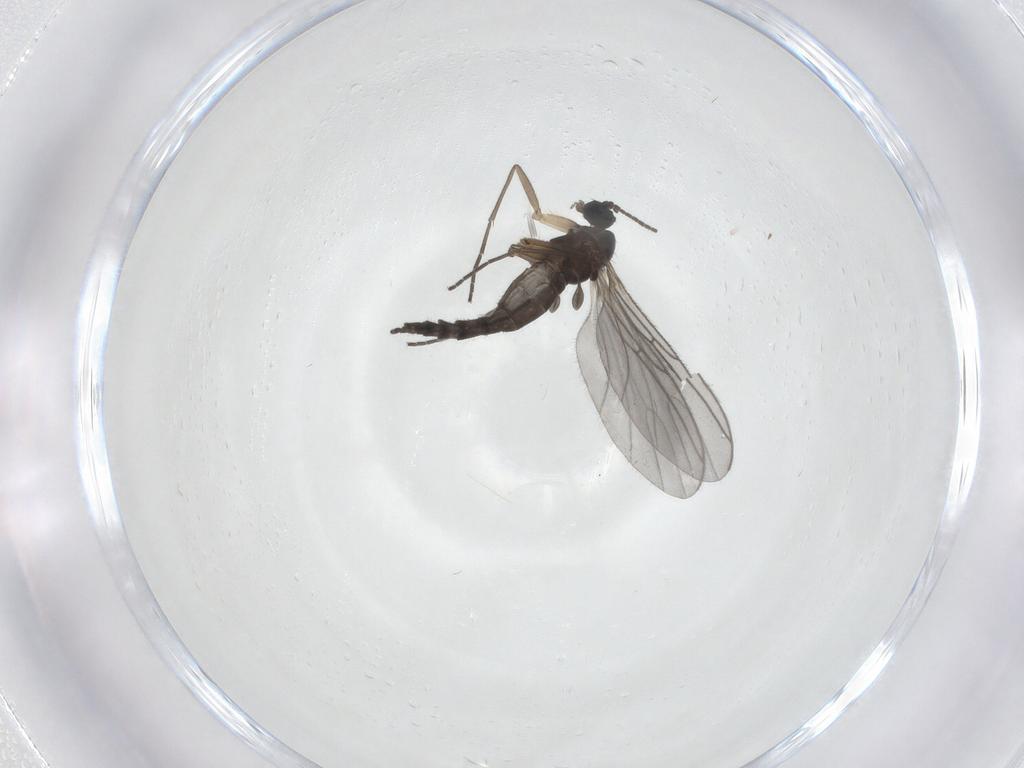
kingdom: Animalia
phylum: Arthropoda
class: Insecta
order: Diptera
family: Sciaridae
